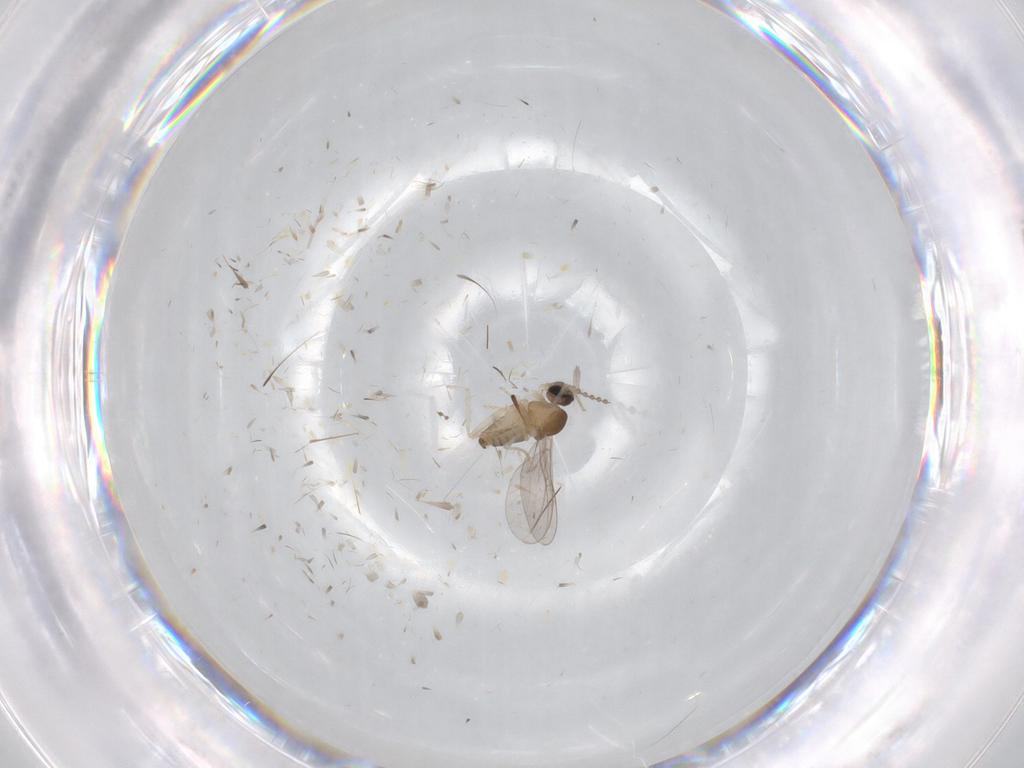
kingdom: Animalia
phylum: Arthropoda
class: Insecta
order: Diptera
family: Cecidomyiidae
